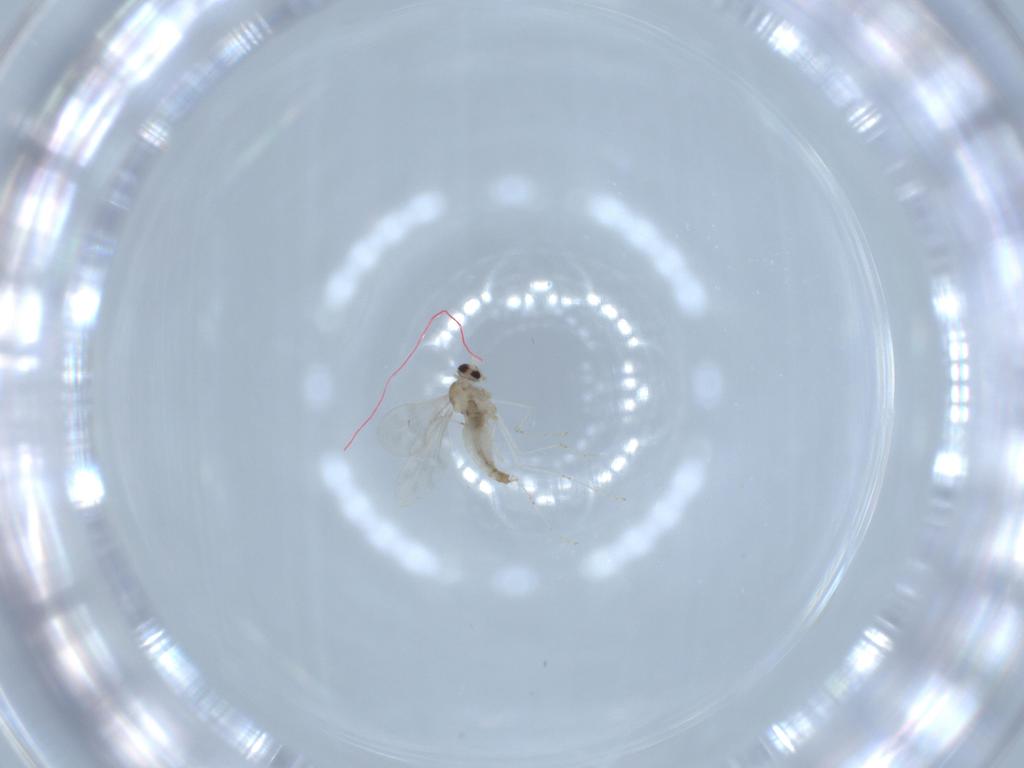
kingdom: Animalia
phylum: Arthropoda
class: Insecta
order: Diptera
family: Cecidomyiidae
